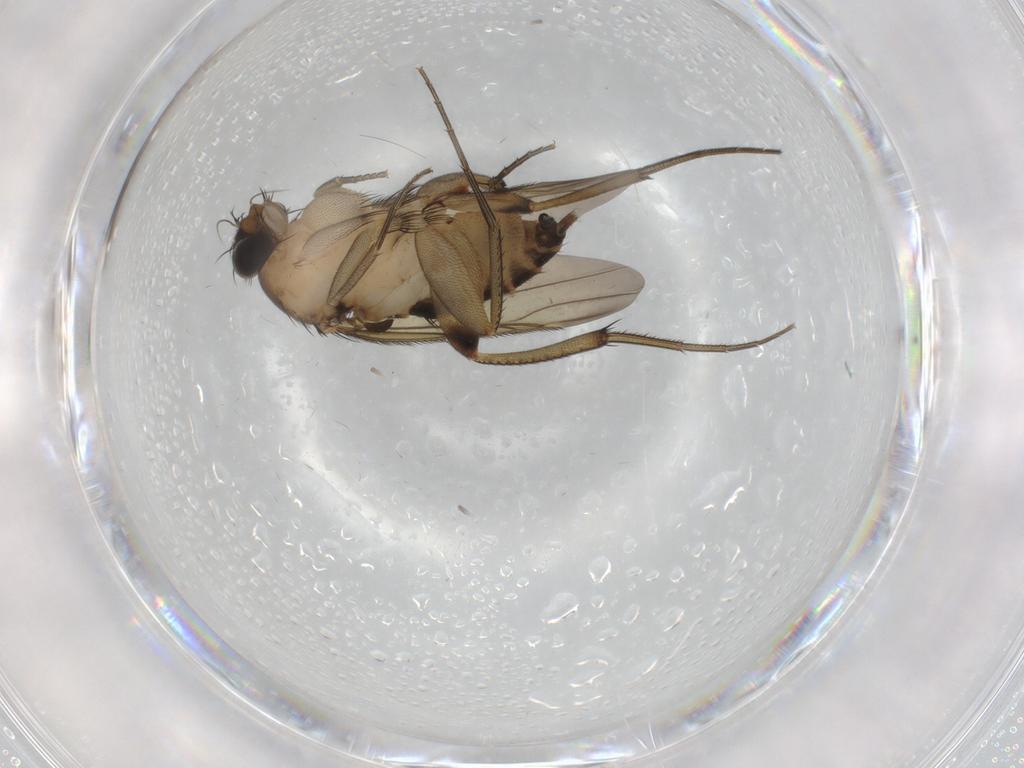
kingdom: Animalia
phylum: Arthropoda
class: Insecta
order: Diptera
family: Phoridae
